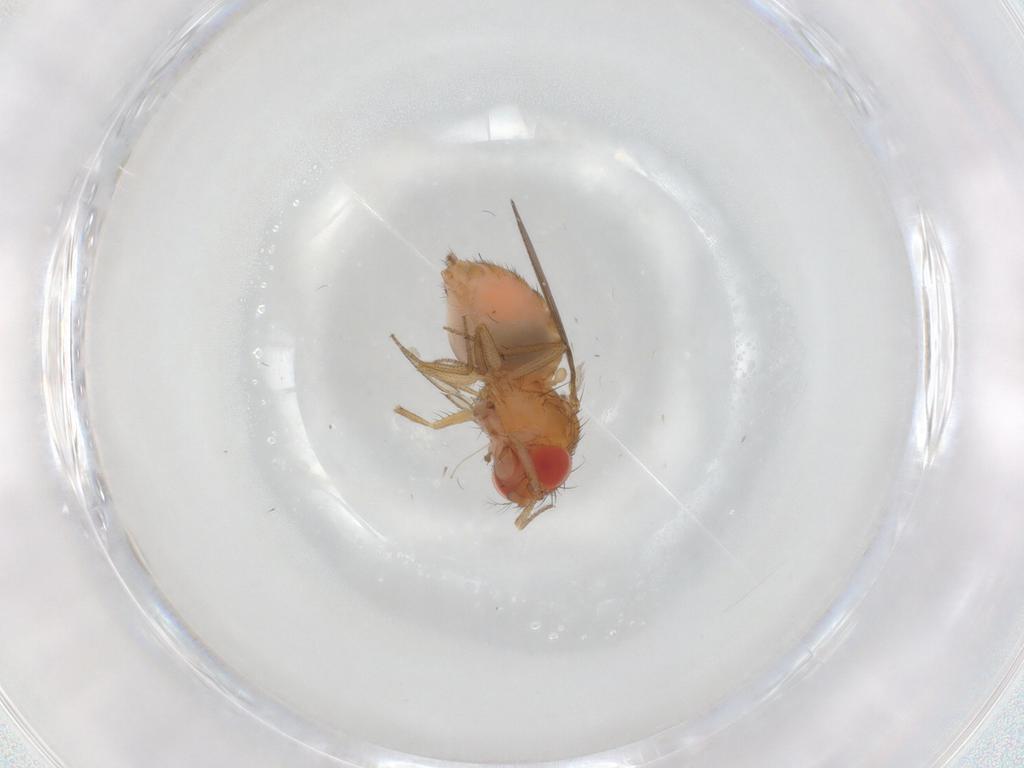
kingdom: Animalia
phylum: Arthropoda
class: Insecta
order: Diptera
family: Drosophilidae
